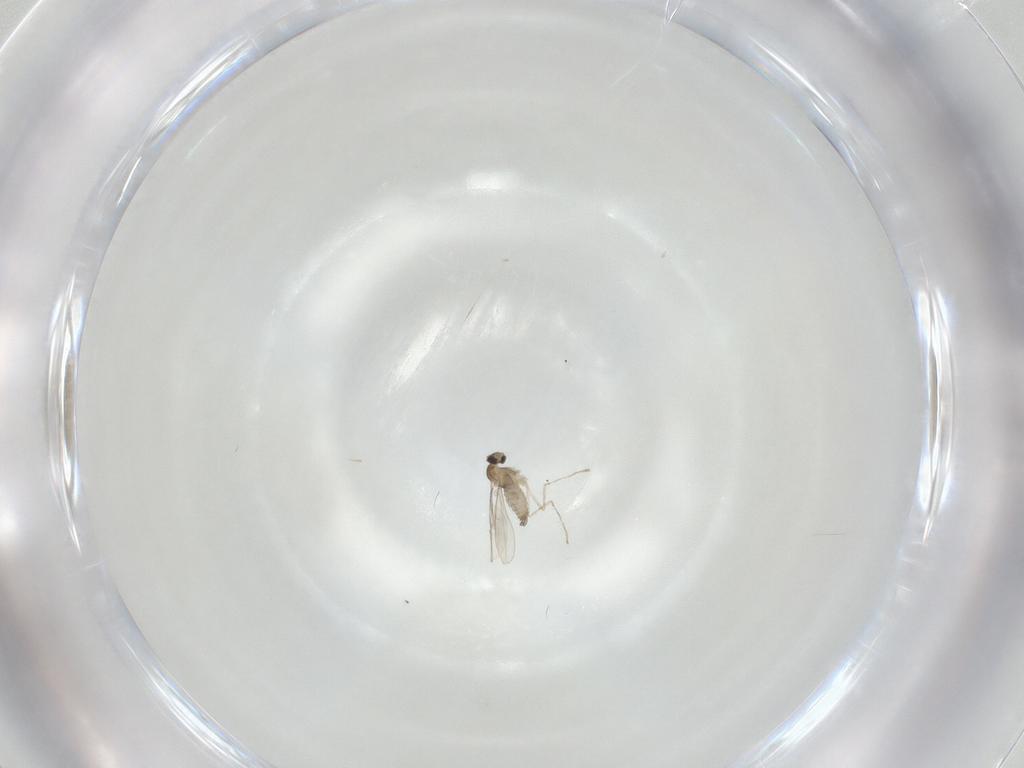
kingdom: Animalia
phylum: Arthropoda
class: Insecta
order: Diptera
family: Cecidomyiidae
